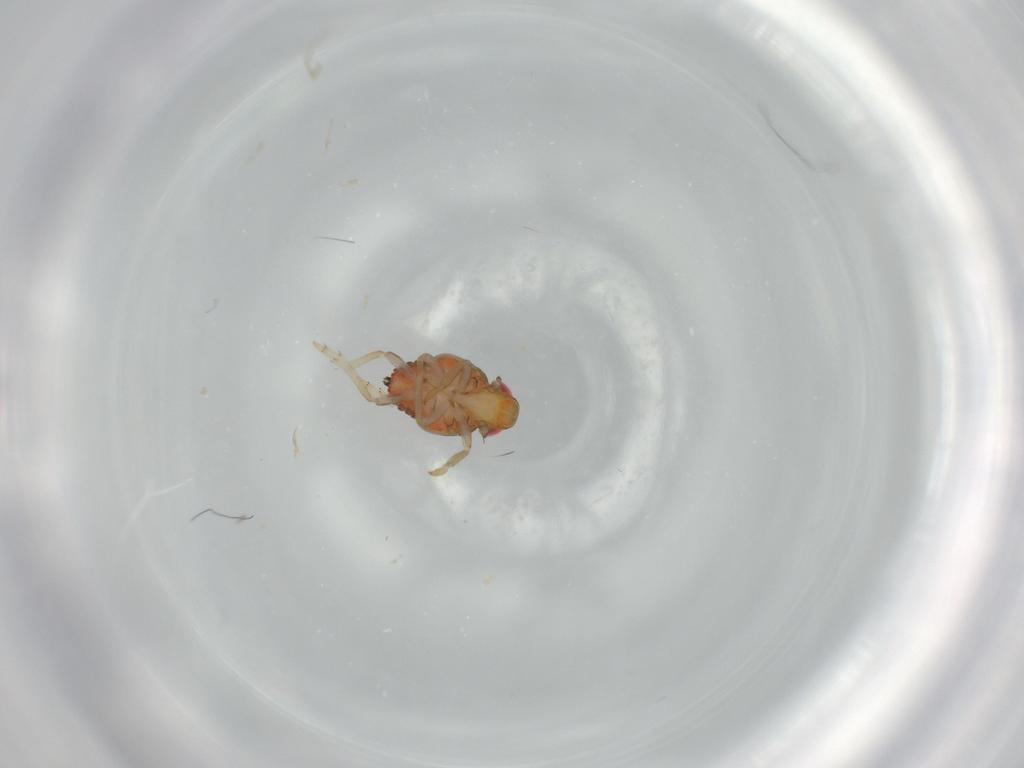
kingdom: Animalia
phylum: Arthropoda
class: Insecta
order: Hemiptera
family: Issidae
